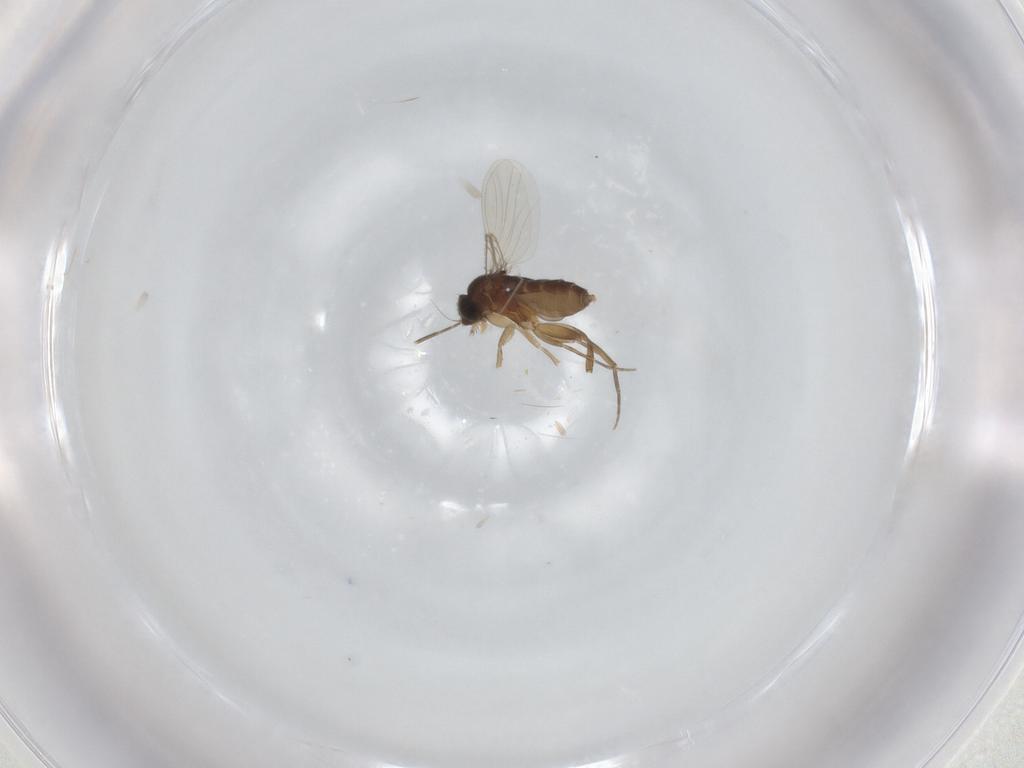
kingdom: Animalia
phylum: Arthropoda
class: Insecta
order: Diptera
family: Phoridae
